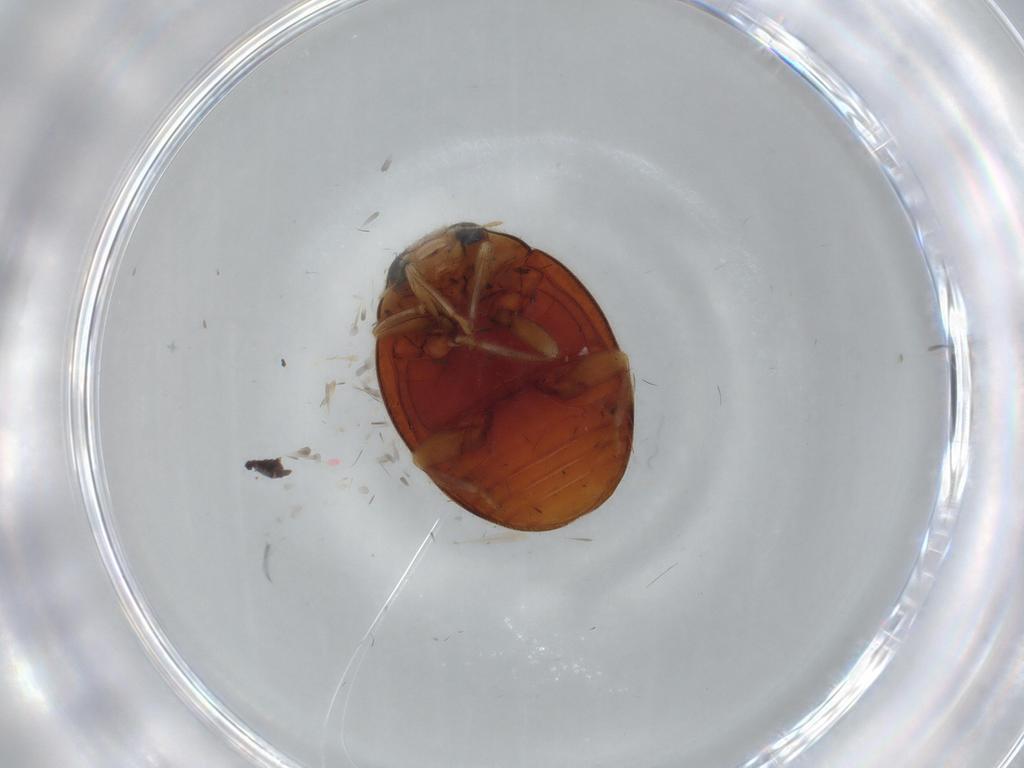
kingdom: Animalia
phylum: Arthropoda
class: Insecta
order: Coleoptera
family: Coccinellidae
